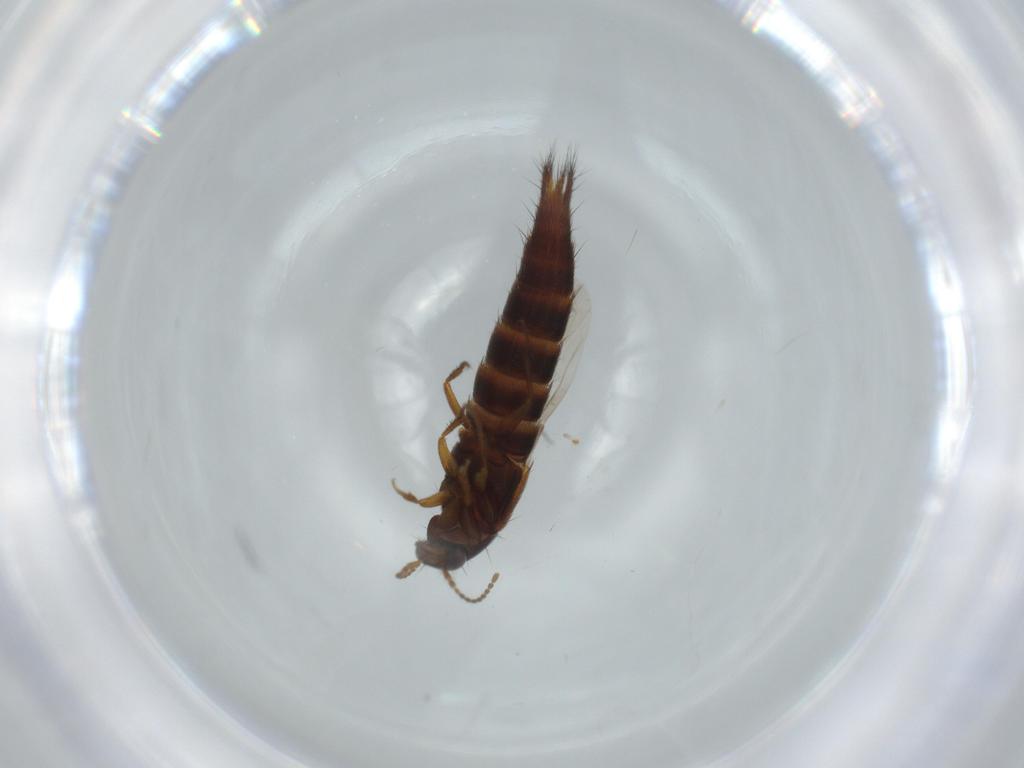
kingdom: Animalia
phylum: Arthropoda
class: Insecta
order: Coleoptera
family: Staphylinidae
